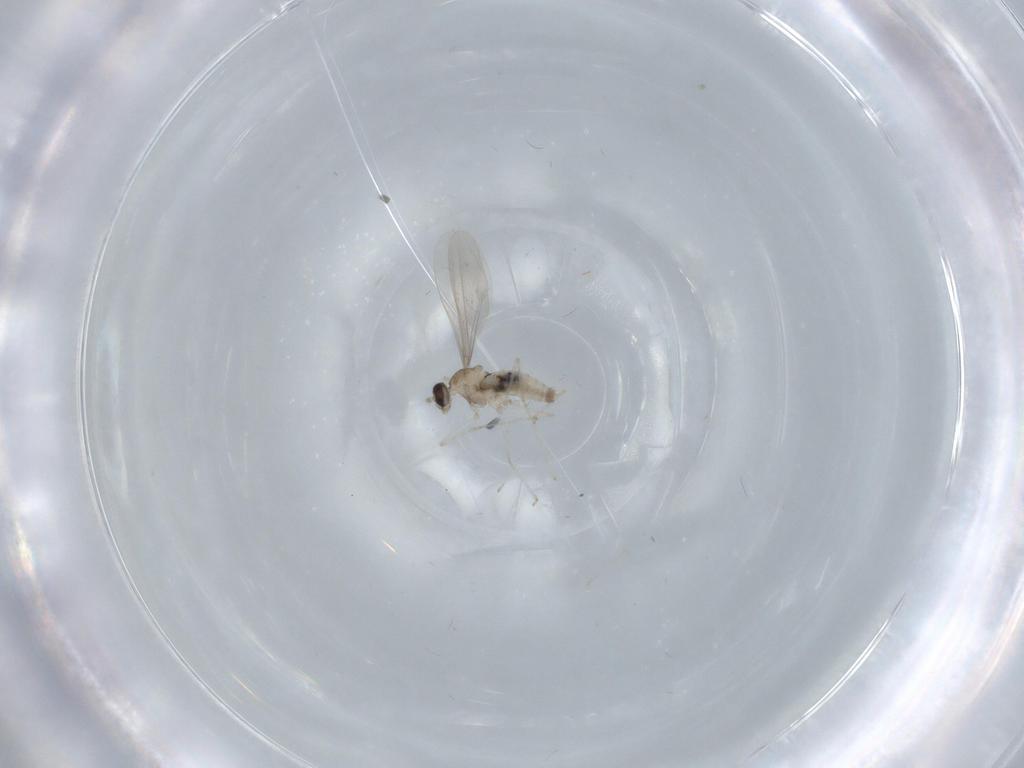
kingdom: Animalia
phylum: Arthropoda
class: Insecta
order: Diptera
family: Cecidomyiidae
